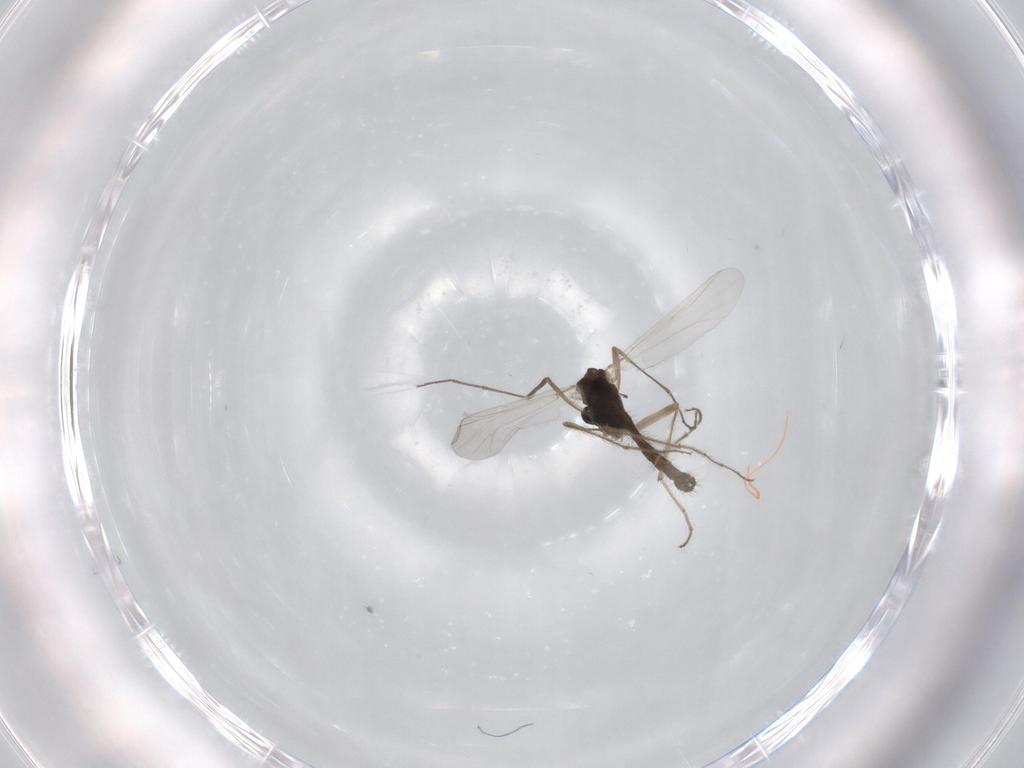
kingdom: Animalia
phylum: Arthropoda
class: Insecta
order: Diptera
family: Chironomidae
